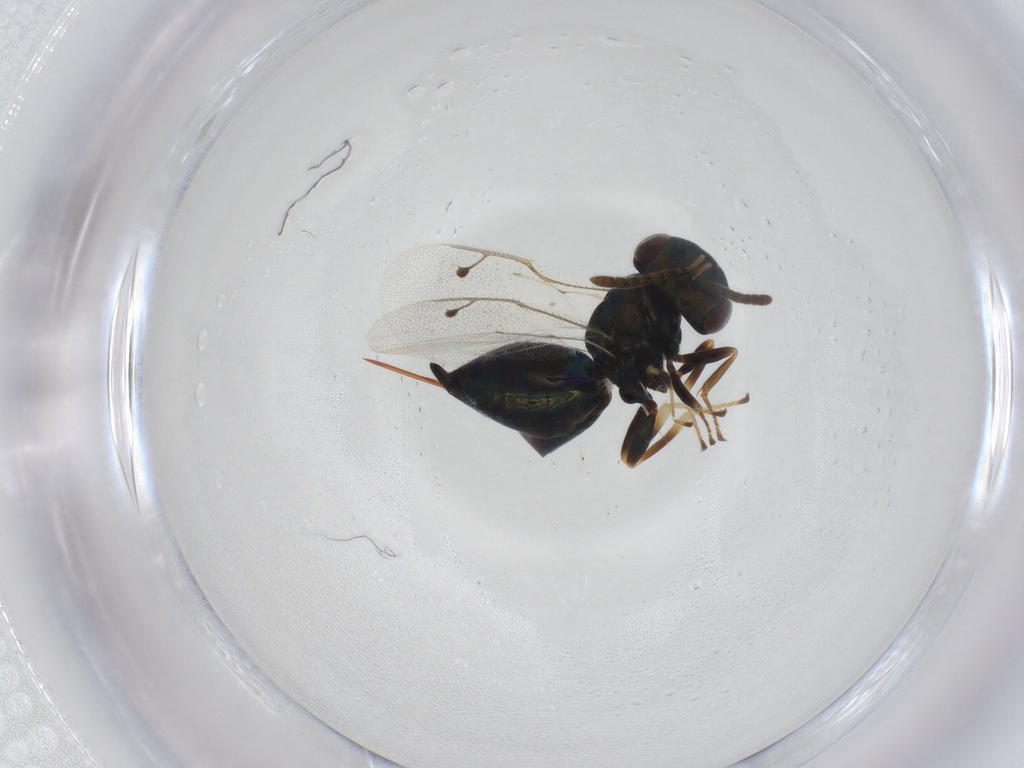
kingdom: Animalia
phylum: Arthropoda
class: Insecta
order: Hymenoptera
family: Pteromalidae
